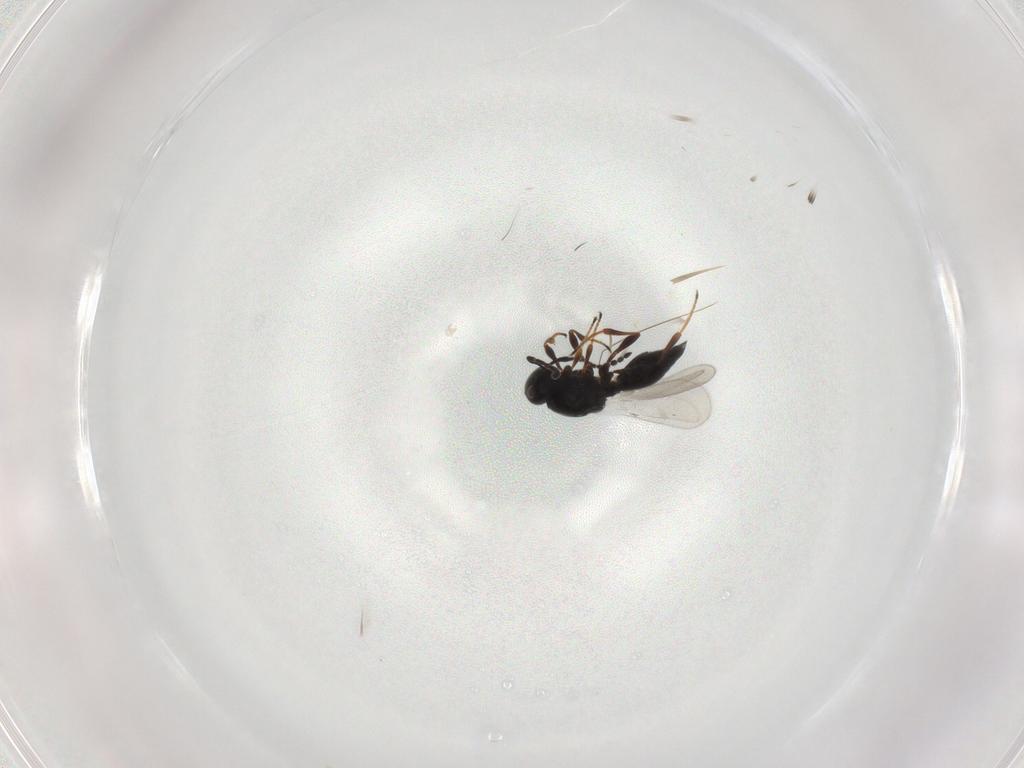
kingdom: Animalia
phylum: Arthropoda
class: Insecta
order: Hymenoptera
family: Platygastridae
